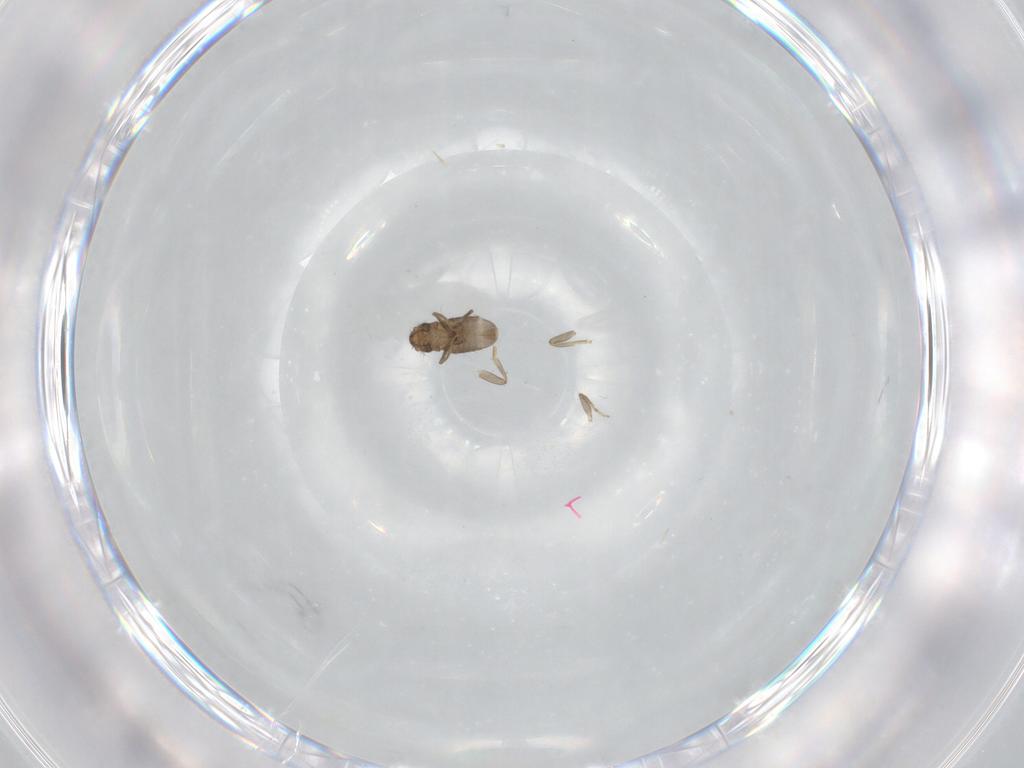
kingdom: Animalia
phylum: Arthropoda
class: Insecta
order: Diptera
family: Cecidomyiidae
